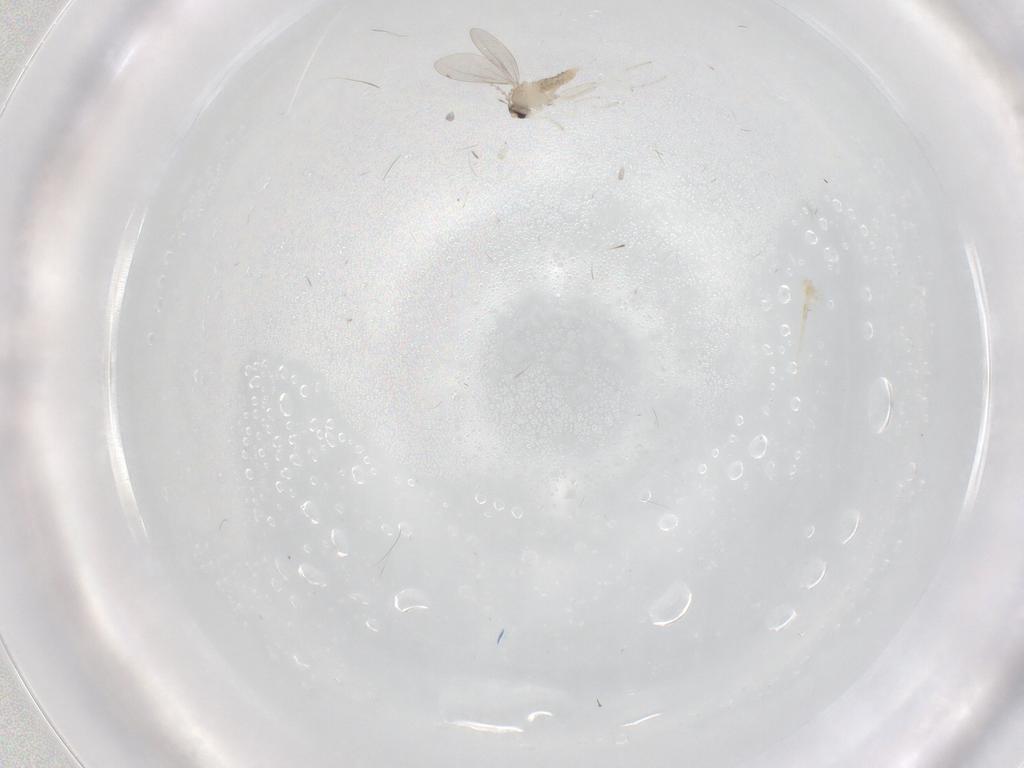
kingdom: Animalia
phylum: Arthropoda
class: Insecta
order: Diptera
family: Cecidomyiidae
